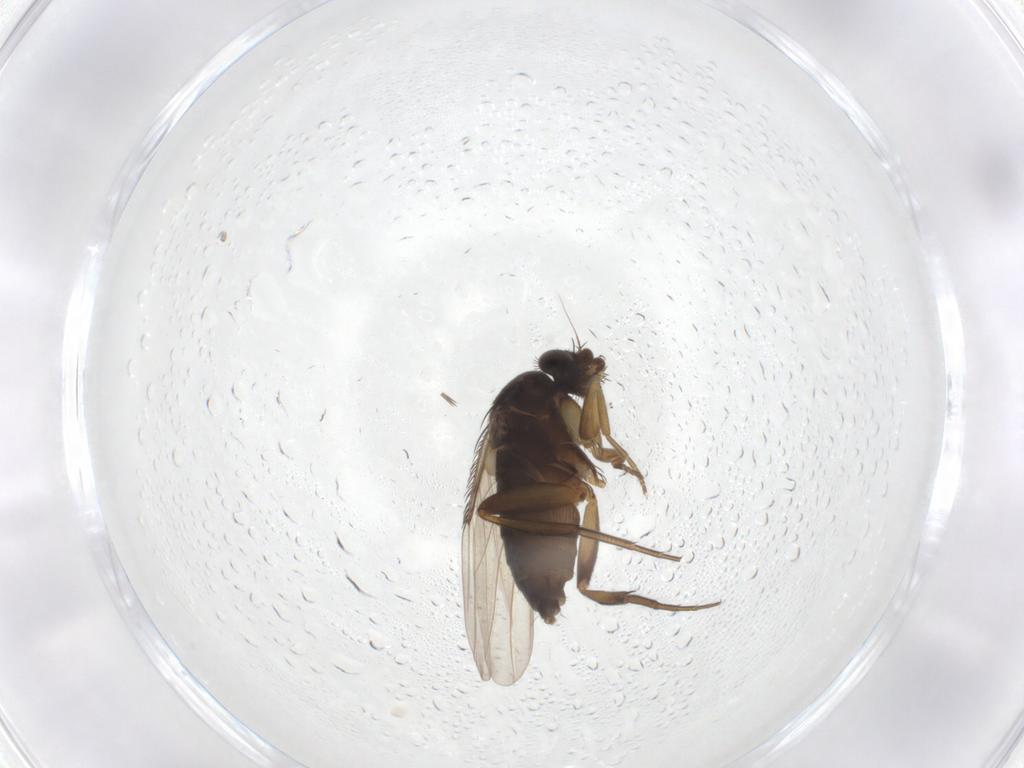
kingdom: Animalia
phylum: Arthropoda
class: Insecta
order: Diptera
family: Phoridae
